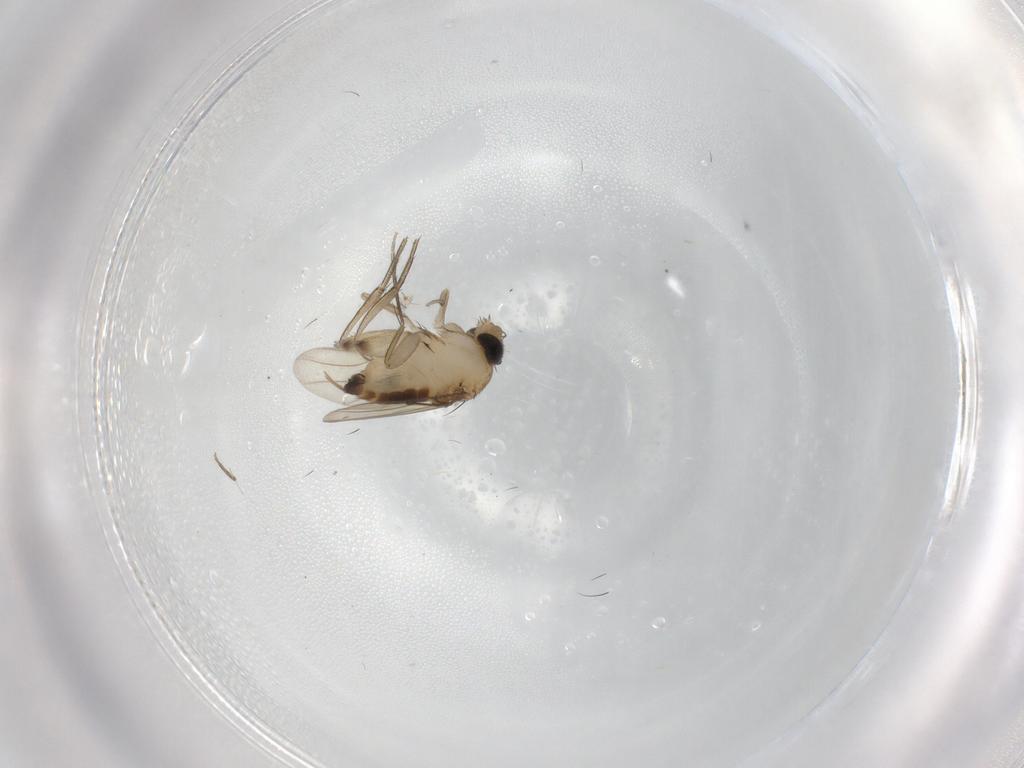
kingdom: Animalia
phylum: Arthropoda
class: Insecta
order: Diptera
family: Phoridae
